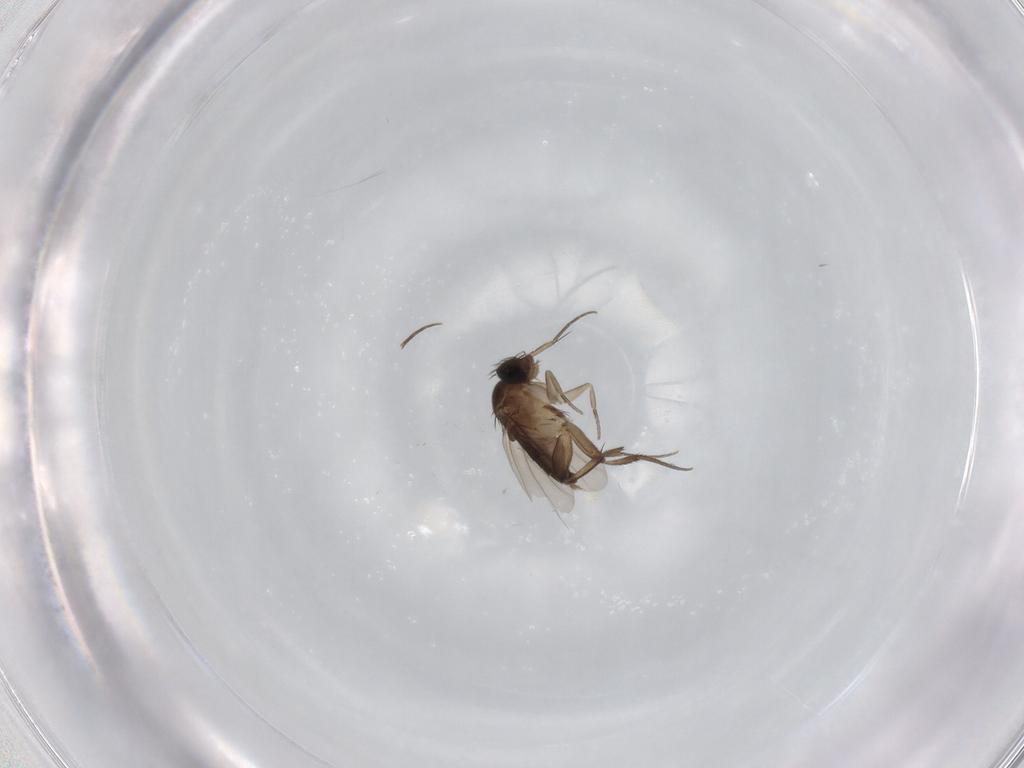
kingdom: Animalia
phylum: Arthropoda
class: Insecta
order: Diptera
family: Phoridae
